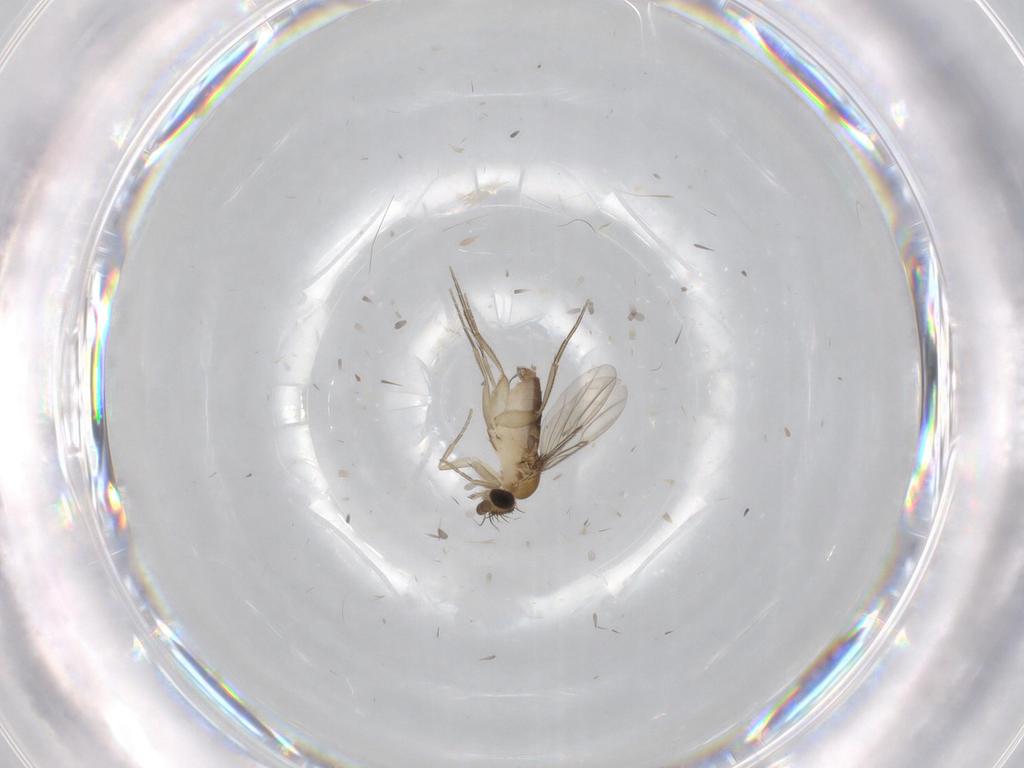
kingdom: Animalia
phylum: Arthropoda
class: Insecta
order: Diptera
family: Phoridae
